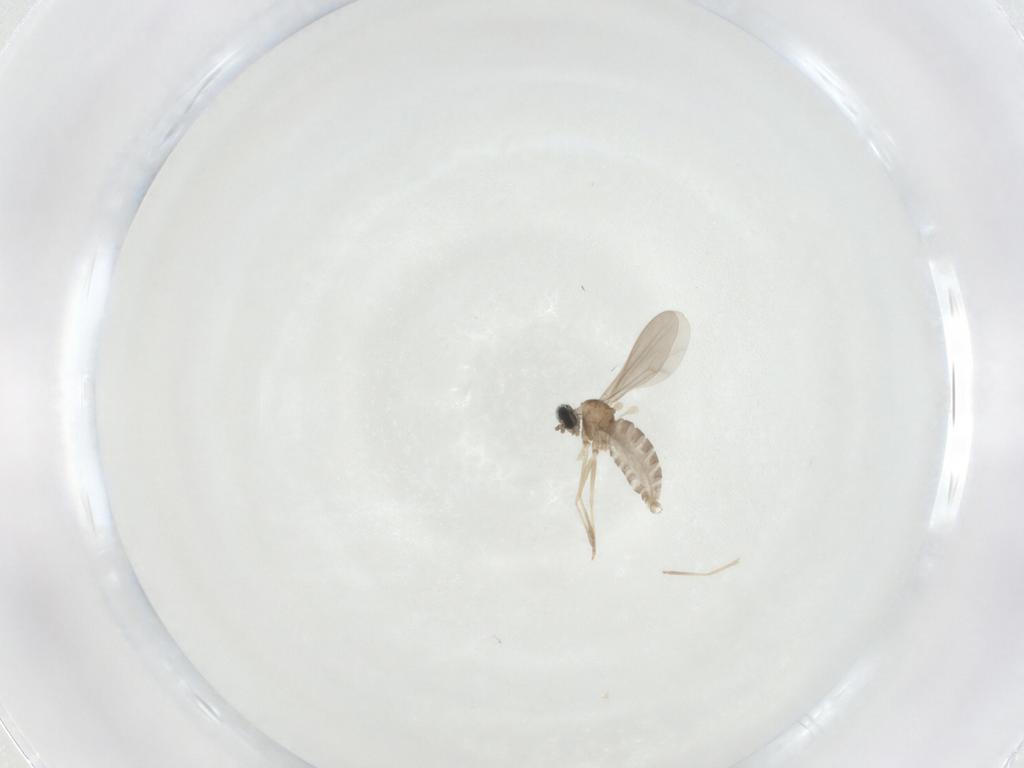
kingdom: Animalia
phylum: Arthropoda
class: Insecta
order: Diptera
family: Cecidomyiidae
